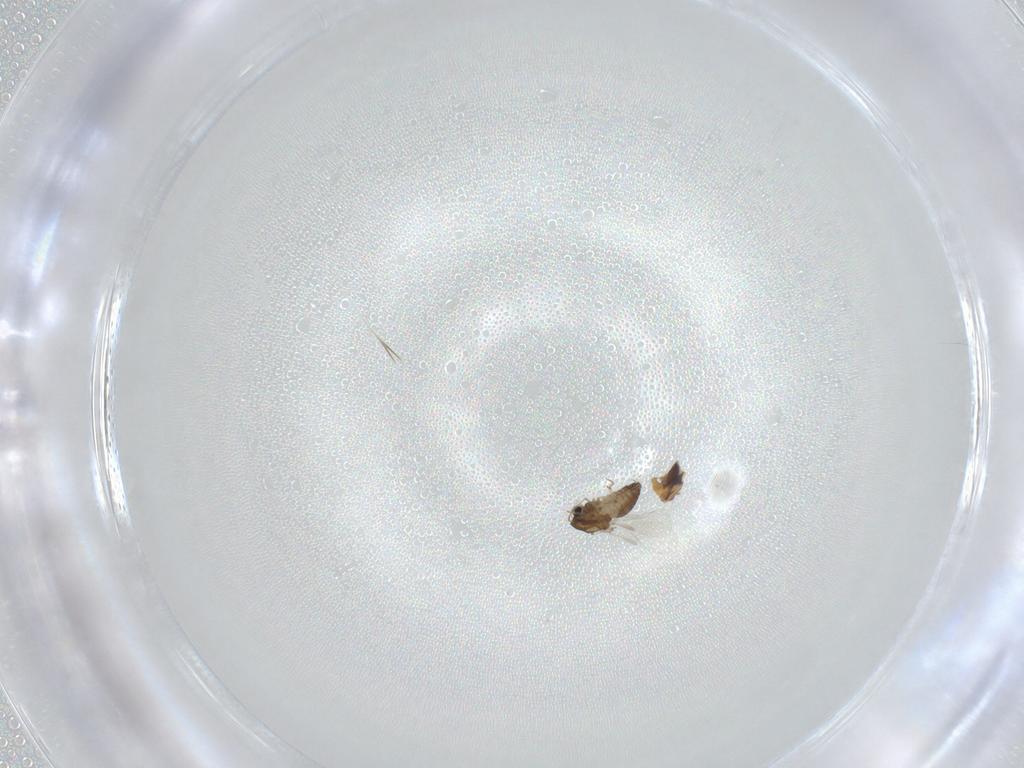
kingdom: Animalia
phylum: Arthropoda
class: Insecta
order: Diptera
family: Chironomidae
